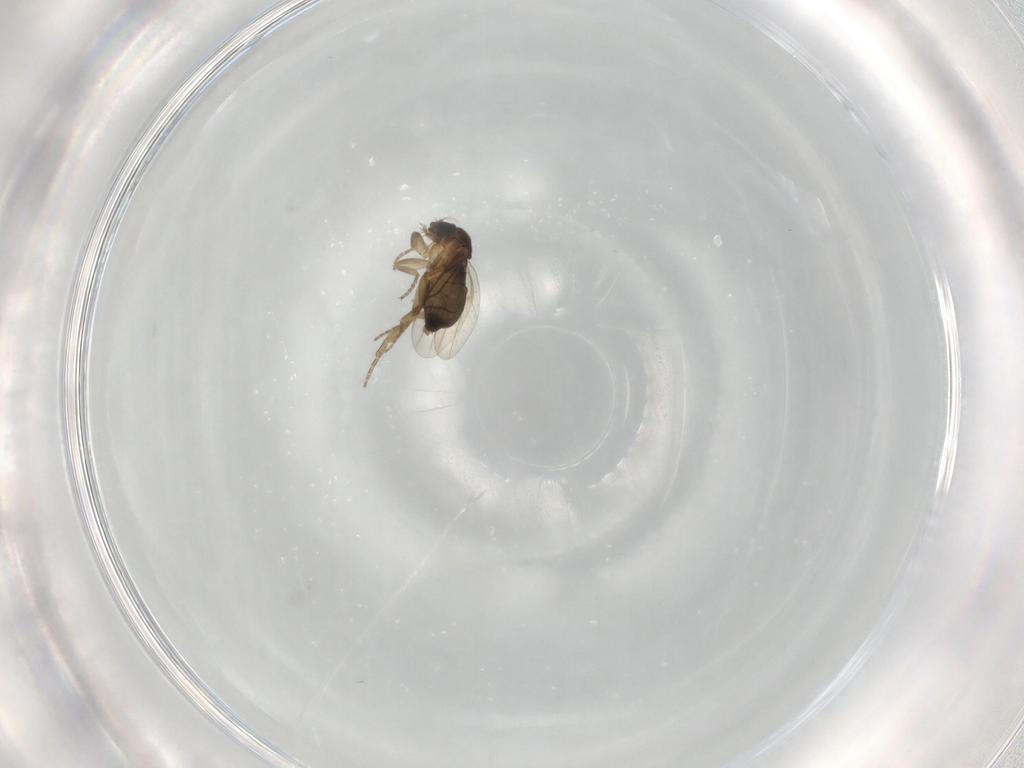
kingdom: Animalia
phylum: Arthropoda
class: Insecta
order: Diptera
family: Phoridae
